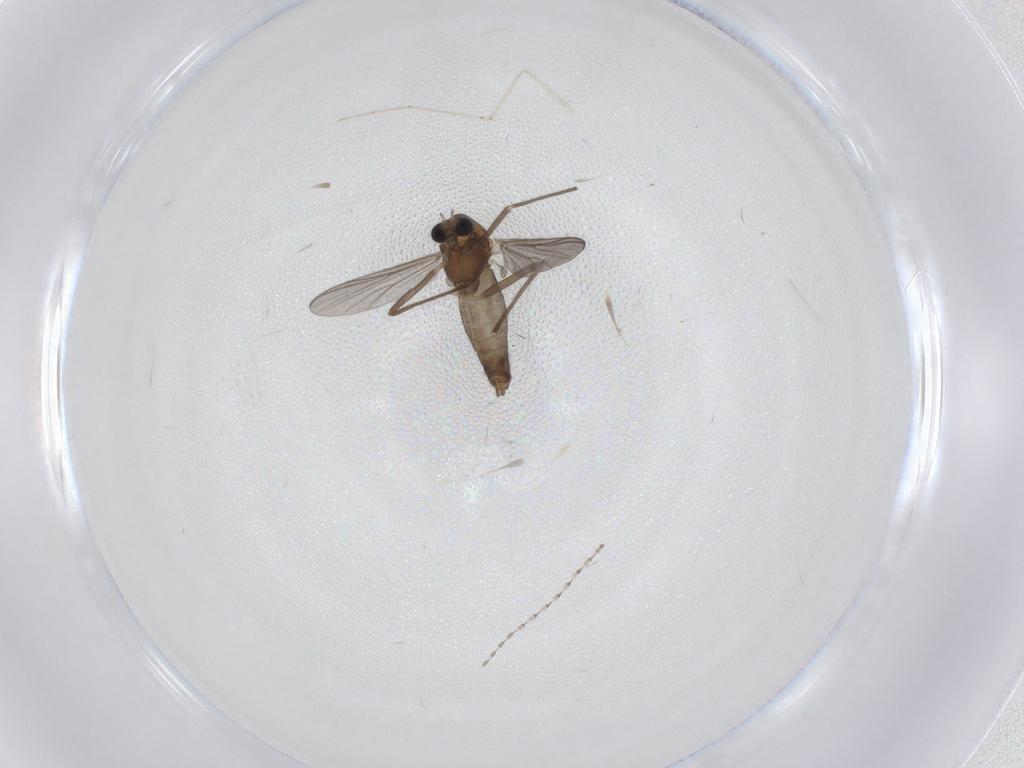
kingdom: Animalia
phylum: Arthropoda
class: Insecta
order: Diptera
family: Chironomidae
